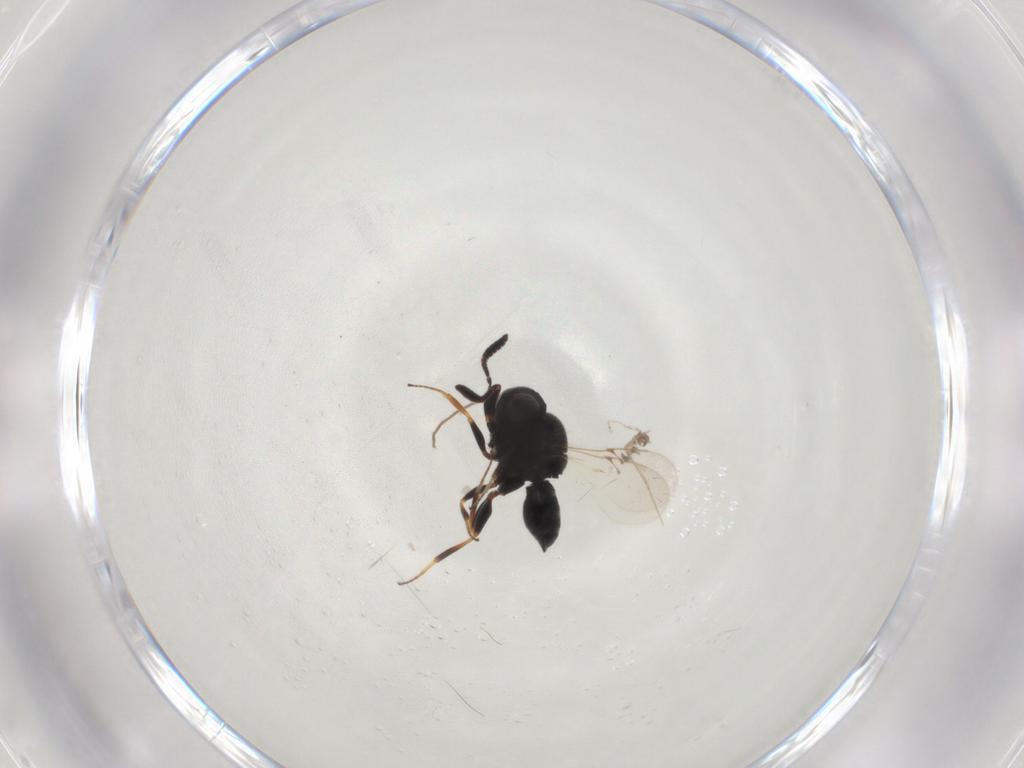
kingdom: Animalia
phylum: Arthropoda
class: Insecta
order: Hymenoptera
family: Scelionidae
